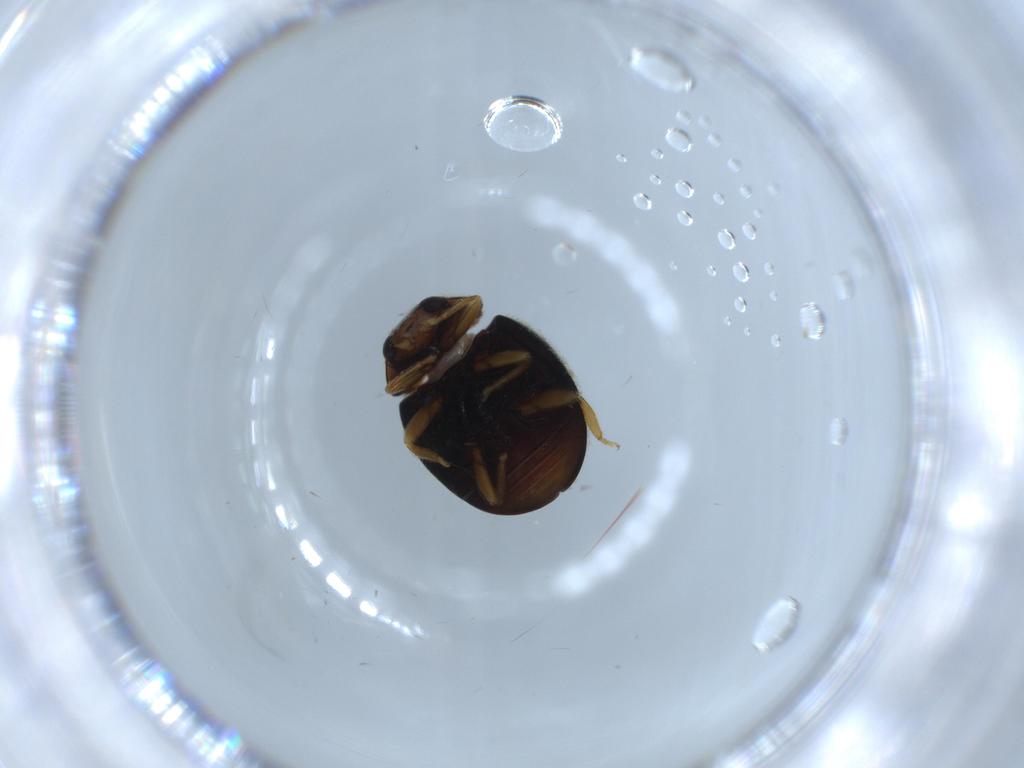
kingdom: Animalia
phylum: Arthropoda
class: Insecta
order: Coleoptera
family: Coccinellidae
